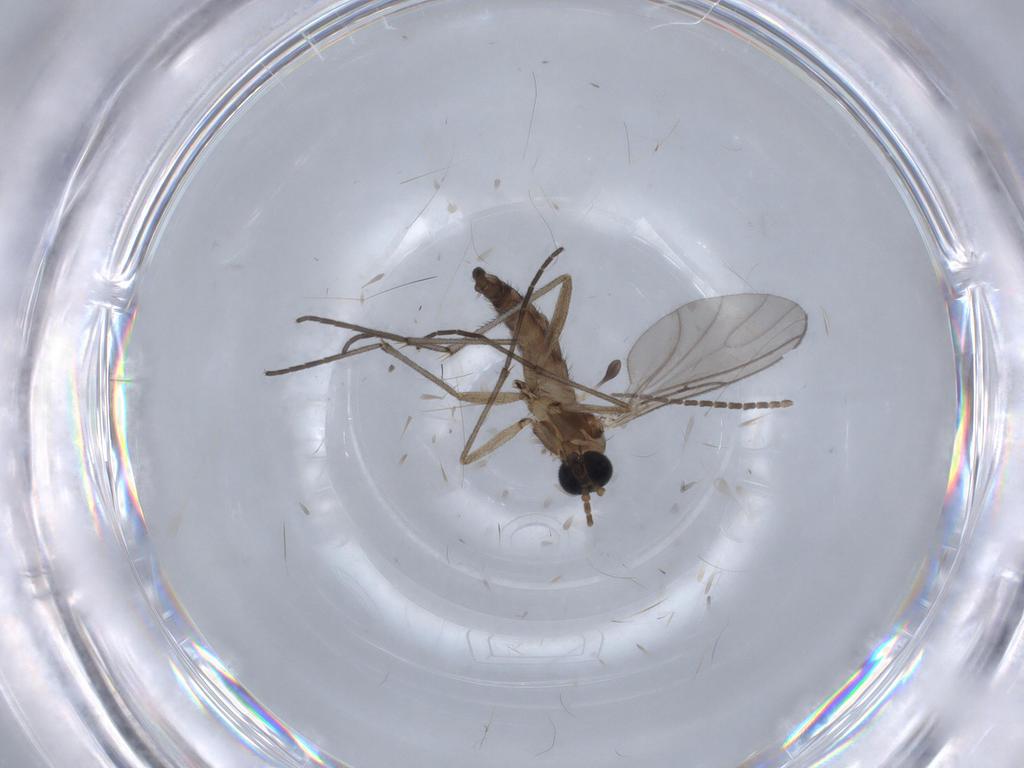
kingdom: Animalia
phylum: Arthropoda
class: Insecta
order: Diptera
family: Sciaridae
